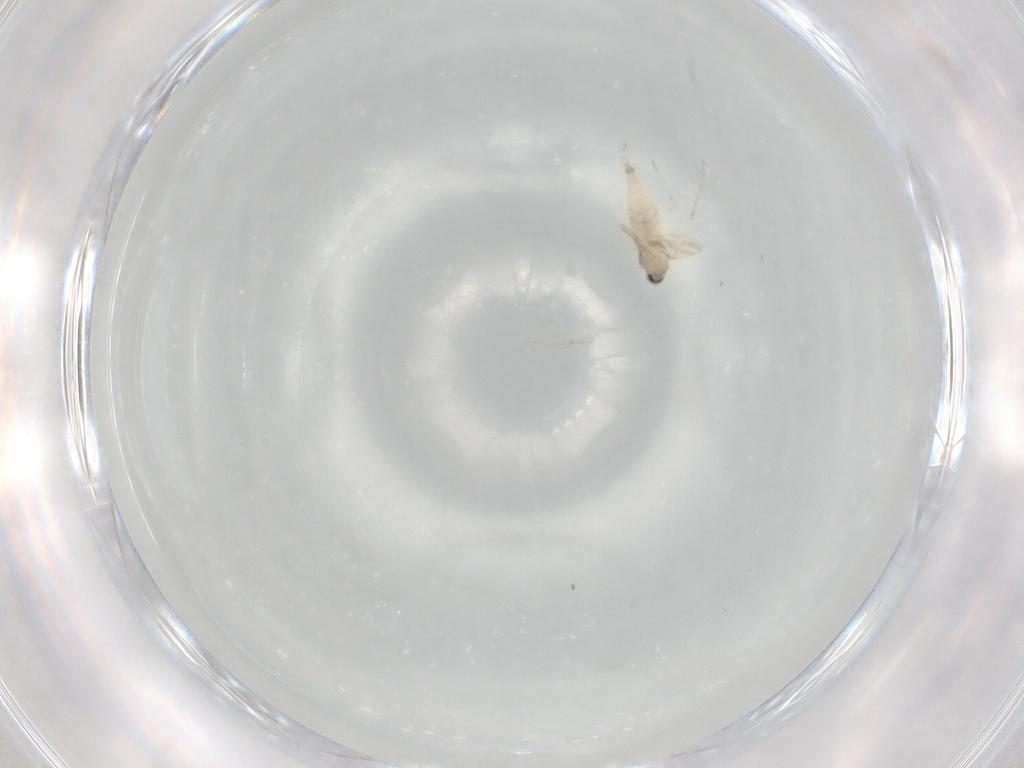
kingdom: Animalia
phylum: Arthropoda
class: Insecta
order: Diptera
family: Cecidomyiidae
